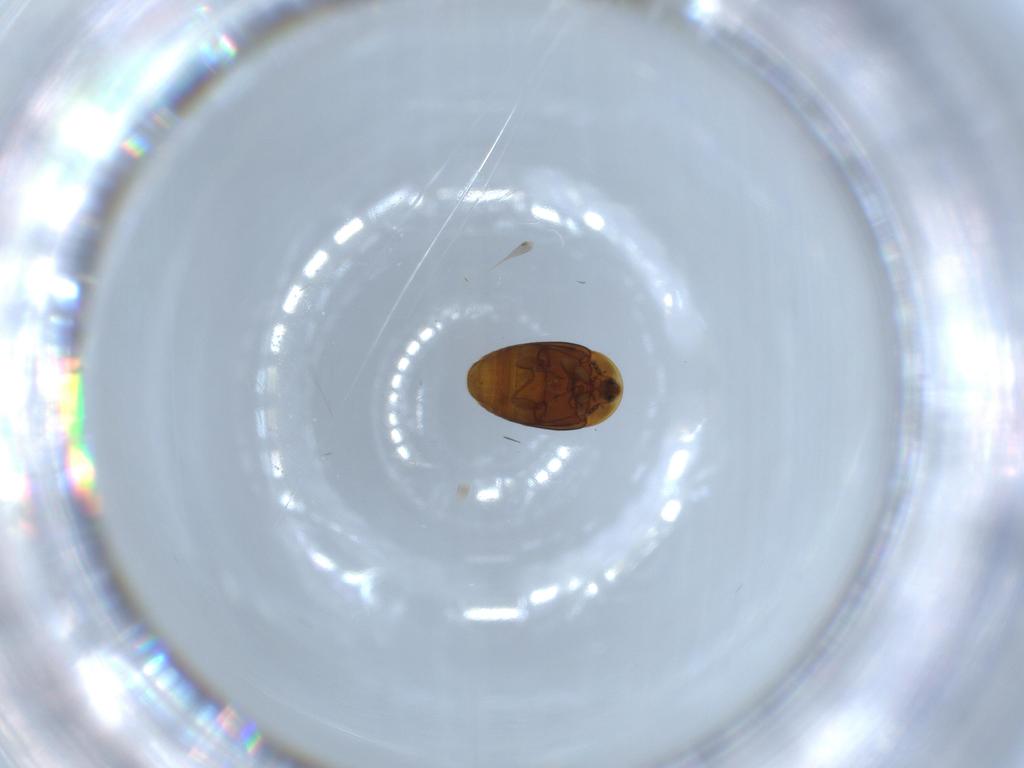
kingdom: Animalia
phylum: Arthropoda
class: Insecta
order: Coleoptera
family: Corylophidae
